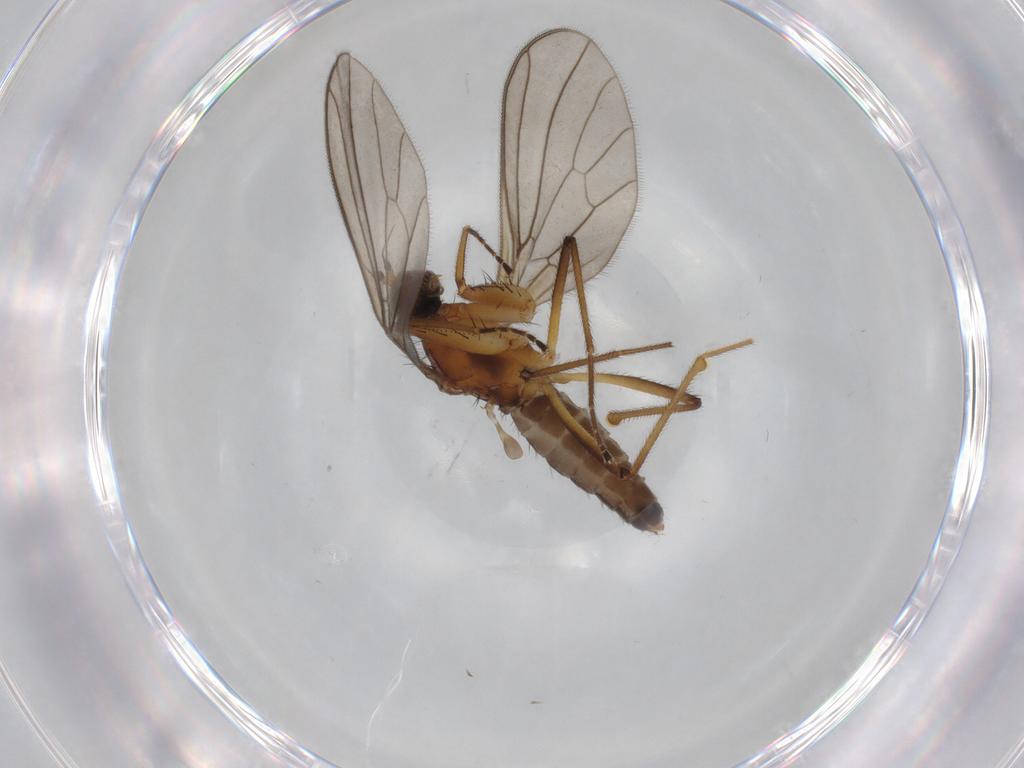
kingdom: Animalia
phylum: Arthropoda
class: Insecta
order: Diptera
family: Empididae
